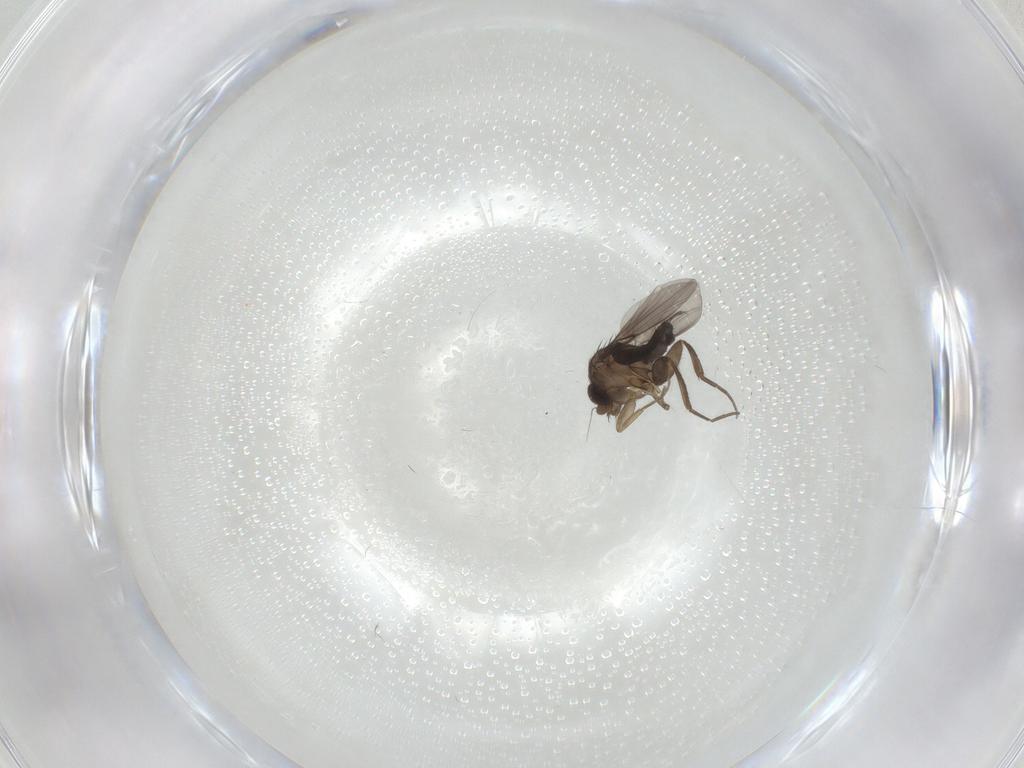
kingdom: Animalia
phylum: Arthropoda
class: Insecta
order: Diptera
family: Phoridae
